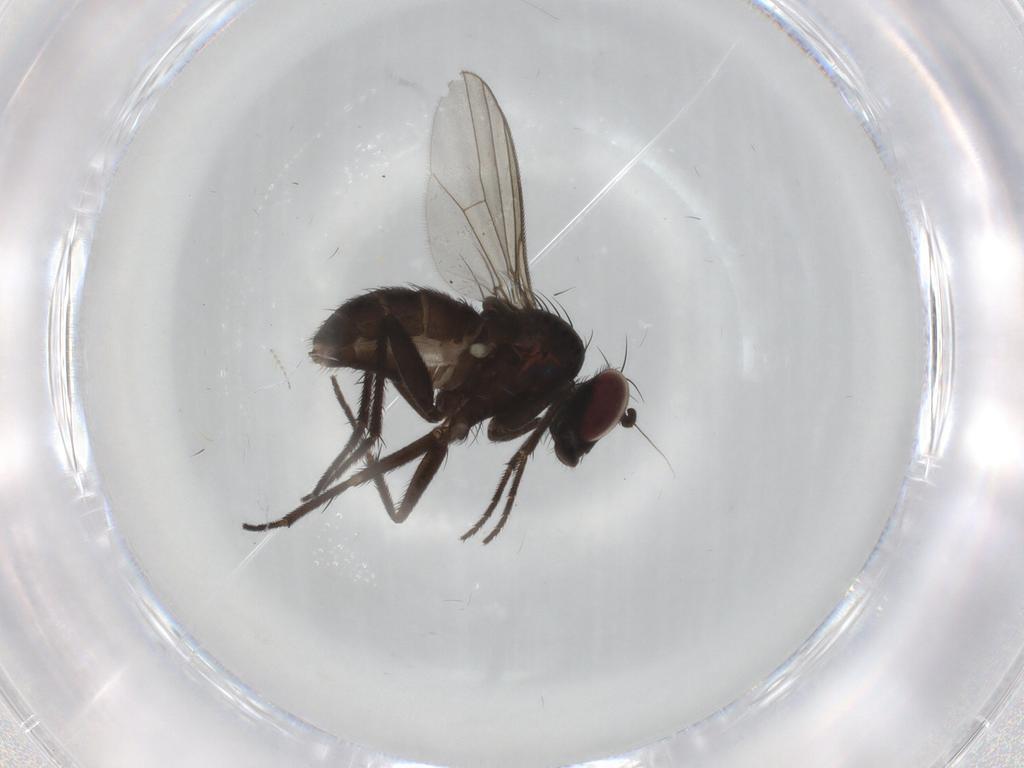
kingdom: Animalia
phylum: Arthropoda
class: Insecta
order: Diptera
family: Dolichopodidae
